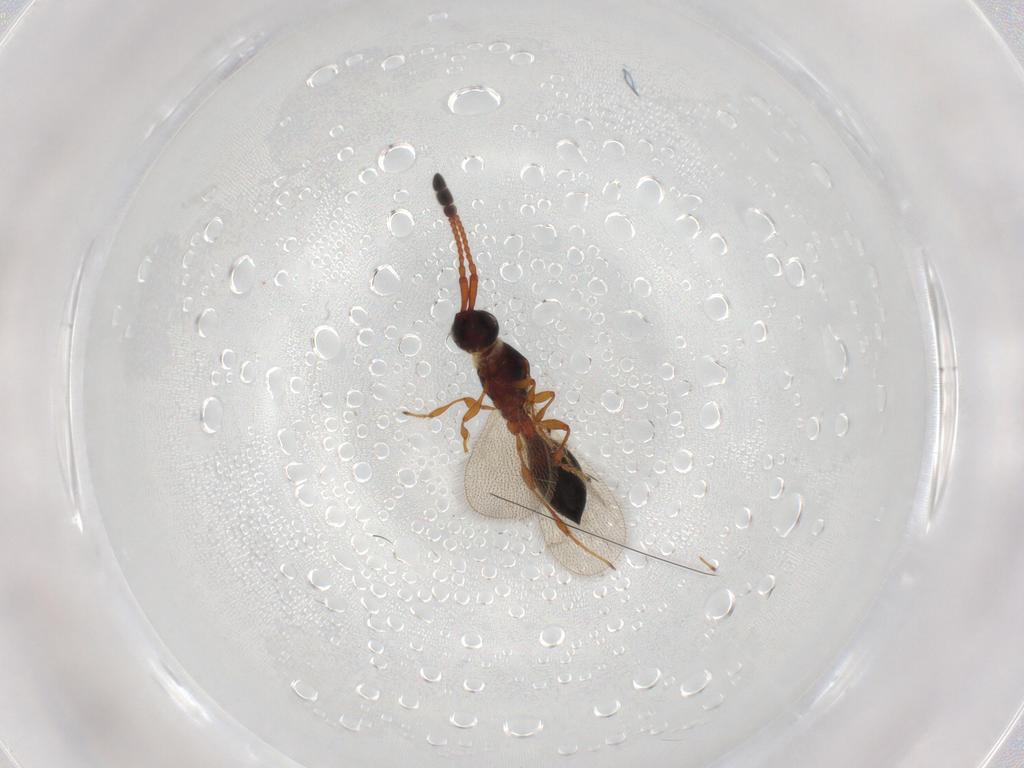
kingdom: Animalia
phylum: Arthropoda
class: Insecta
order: Hymenoptera
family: Diapriidae
